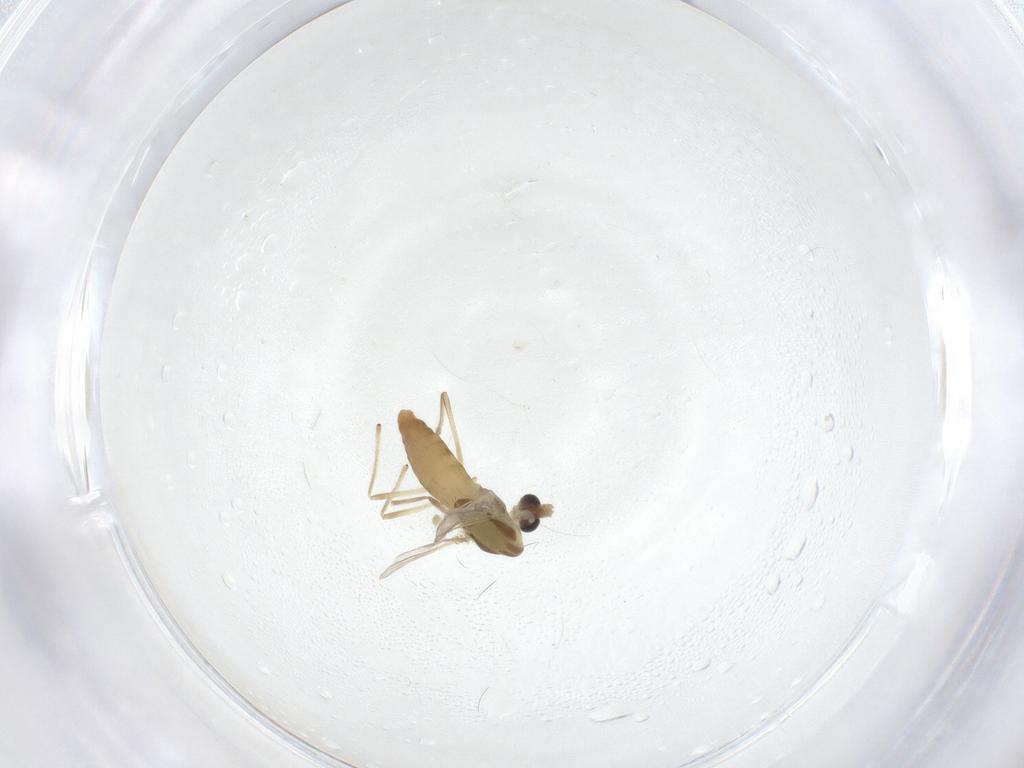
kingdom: Animalia
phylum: Arthropoda
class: Insecta
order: Diptera
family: Chironomidae
